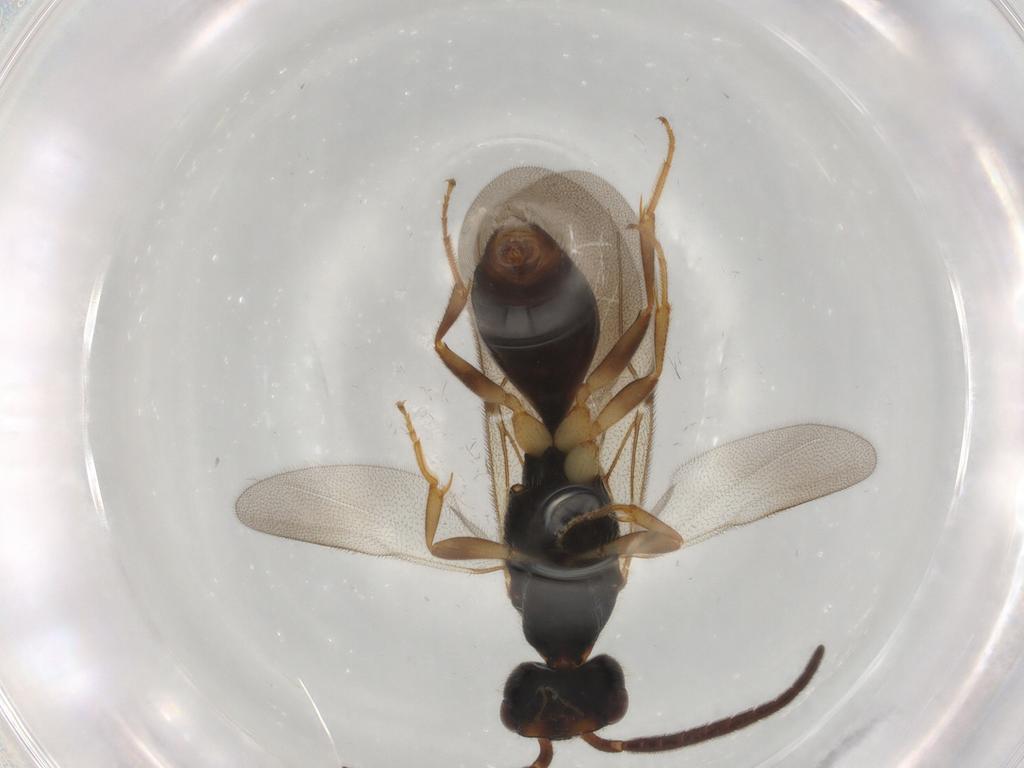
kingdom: Animalia
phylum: Arthropoda
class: Insecta
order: Hymenoptera
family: Bethylidae
